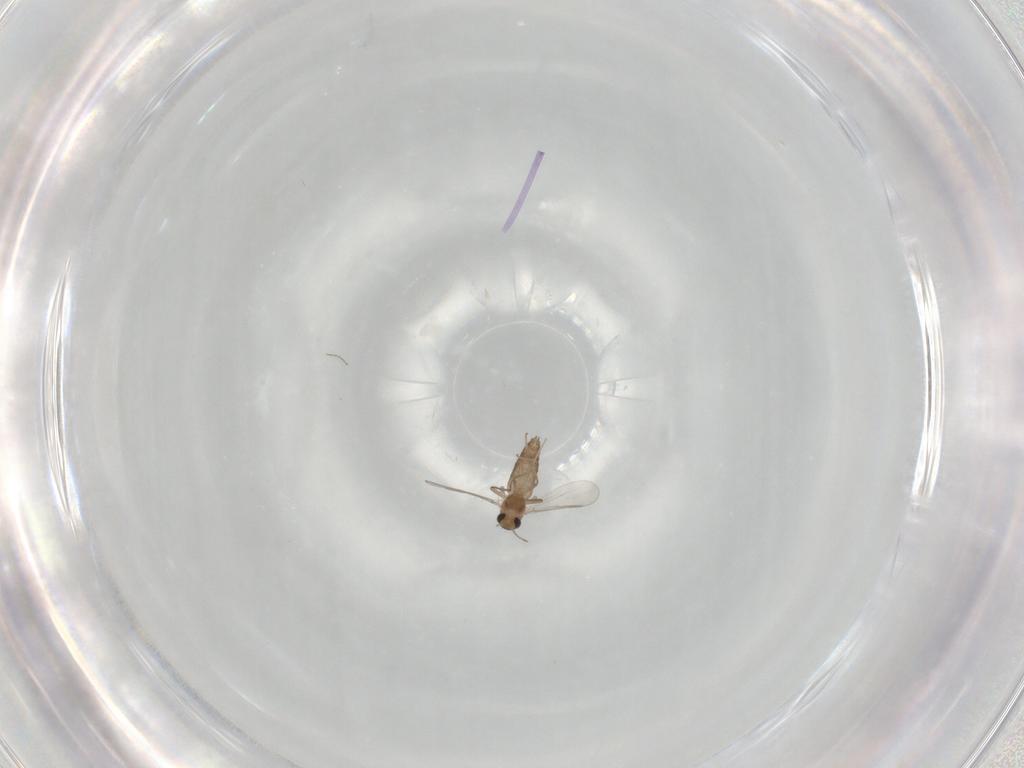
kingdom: Animalia
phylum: Arthropoda
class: Insecta
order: Diptera
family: Chironomidae
